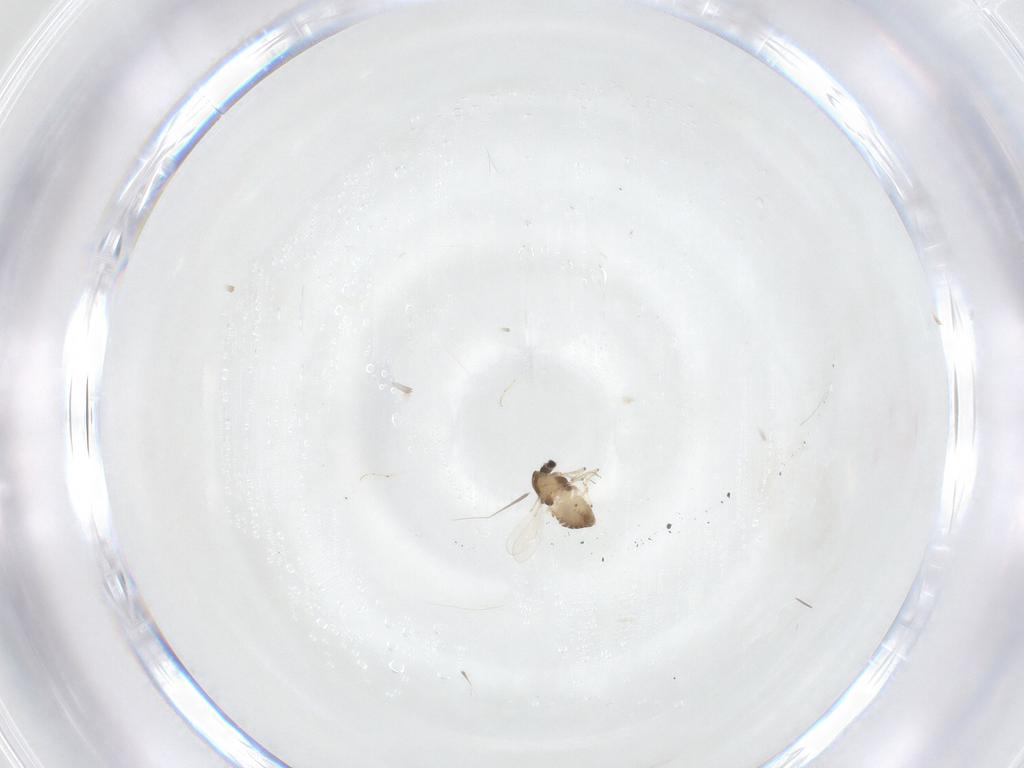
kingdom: Animalia
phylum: Arthropoda
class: Insecta
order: Diptera
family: Chironomidae
